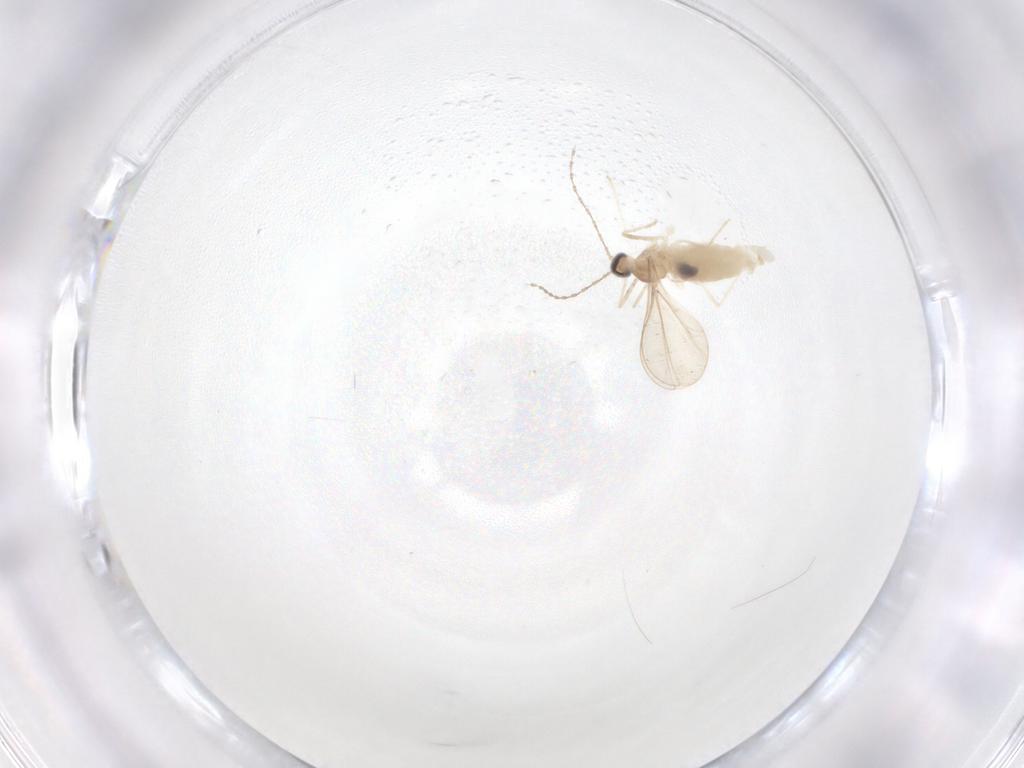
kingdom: Animalia
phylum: Arthropoda
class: Insecta
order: Diptera
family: Cecidomyiidae
